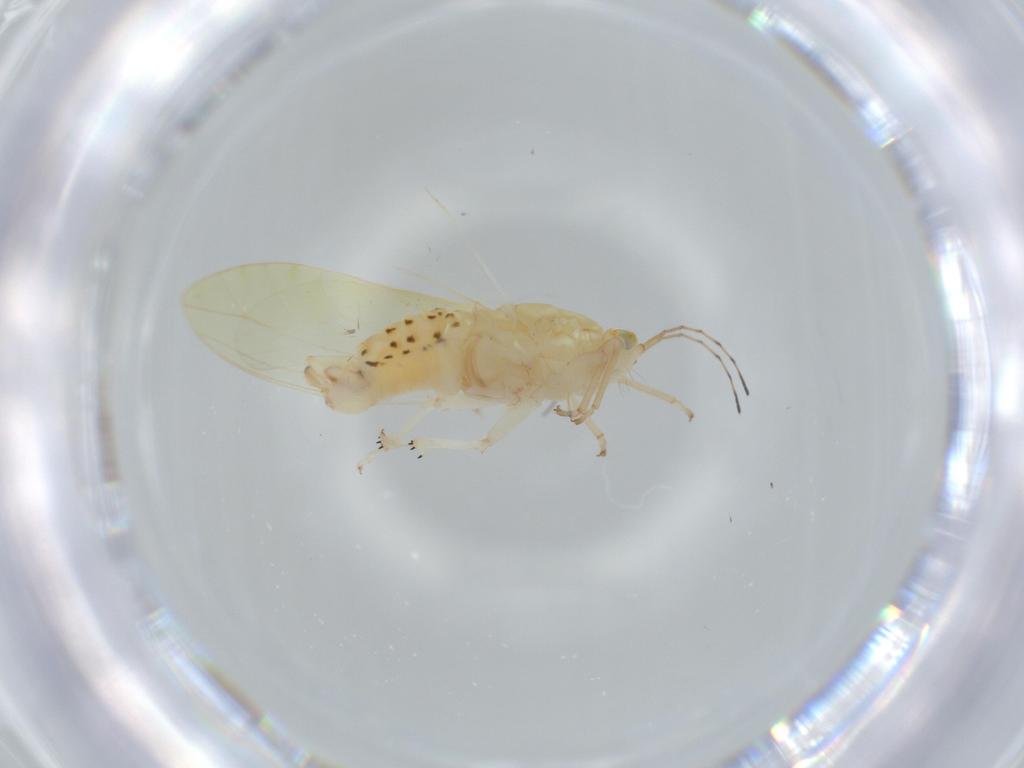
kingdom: Animalia
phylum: Arthropoda
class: Insecta
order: Hemiptera
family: Triozidae
